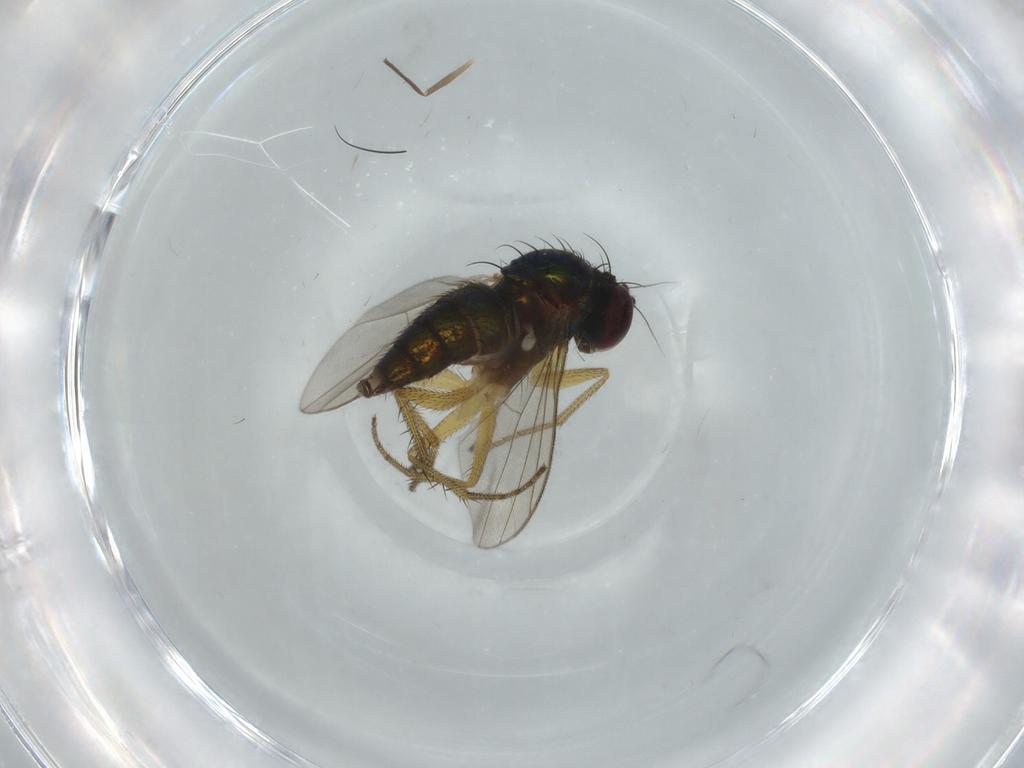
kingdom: Animalia
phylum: Arthropoda
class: Insecta
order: Diptera
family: Dolichopodidae
